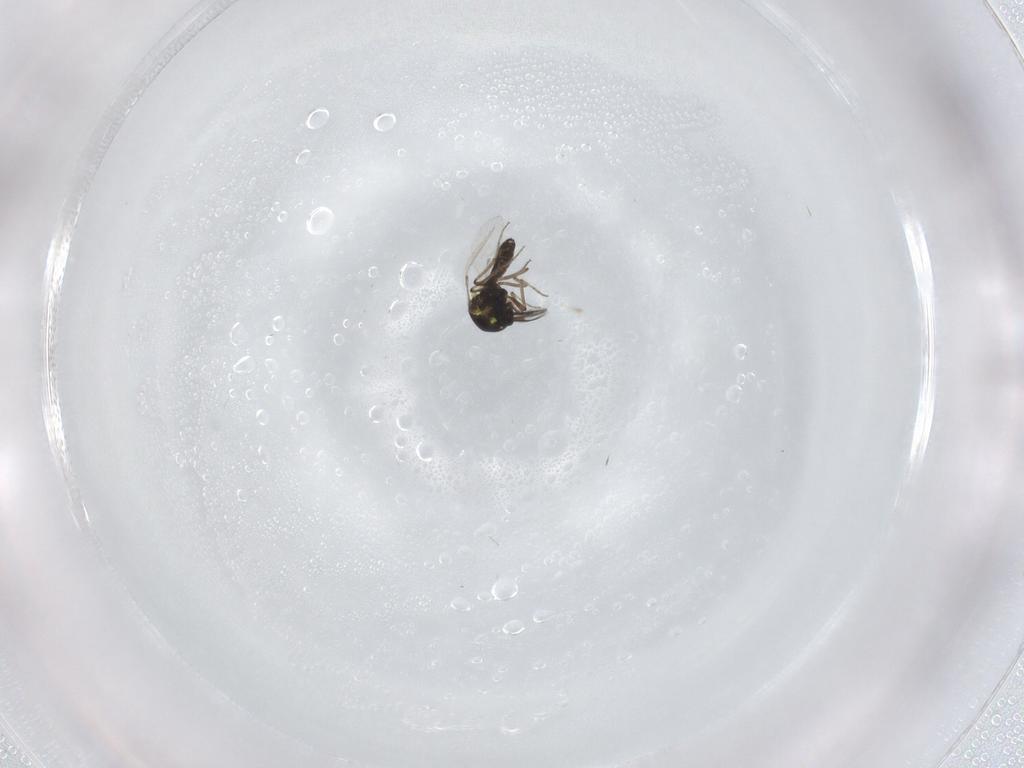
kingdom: Animalia
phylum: Arthropoda
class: Insecta
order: Diptera
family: Ceratopogonidae
